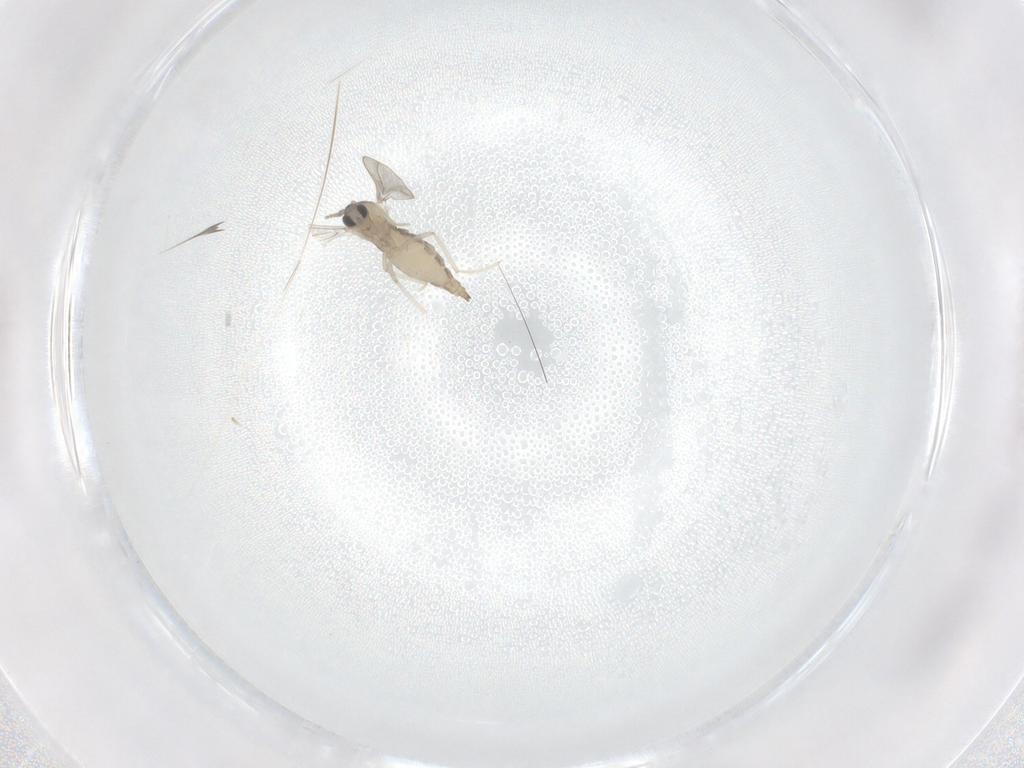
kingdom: Animalia
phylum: Arthropoda
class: Insecta
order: Diptera
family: Cecidomyiidae
